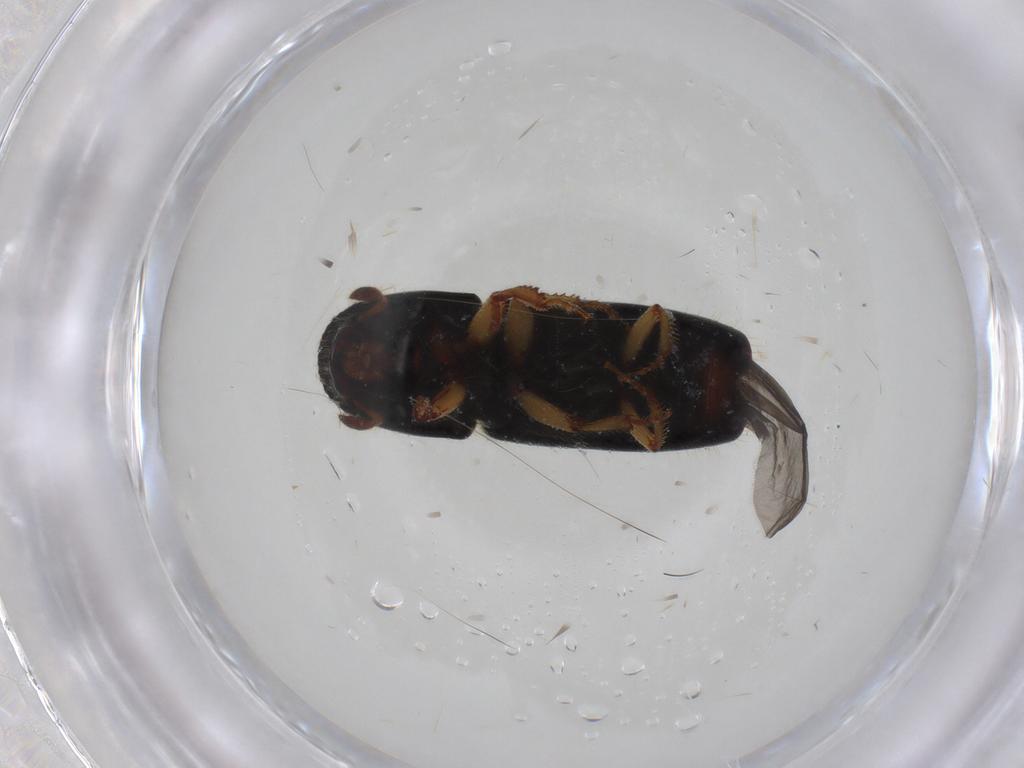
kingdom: Animalia
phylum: Arthropoda
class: Insecta
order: Coleoptera
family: Curculionidae
